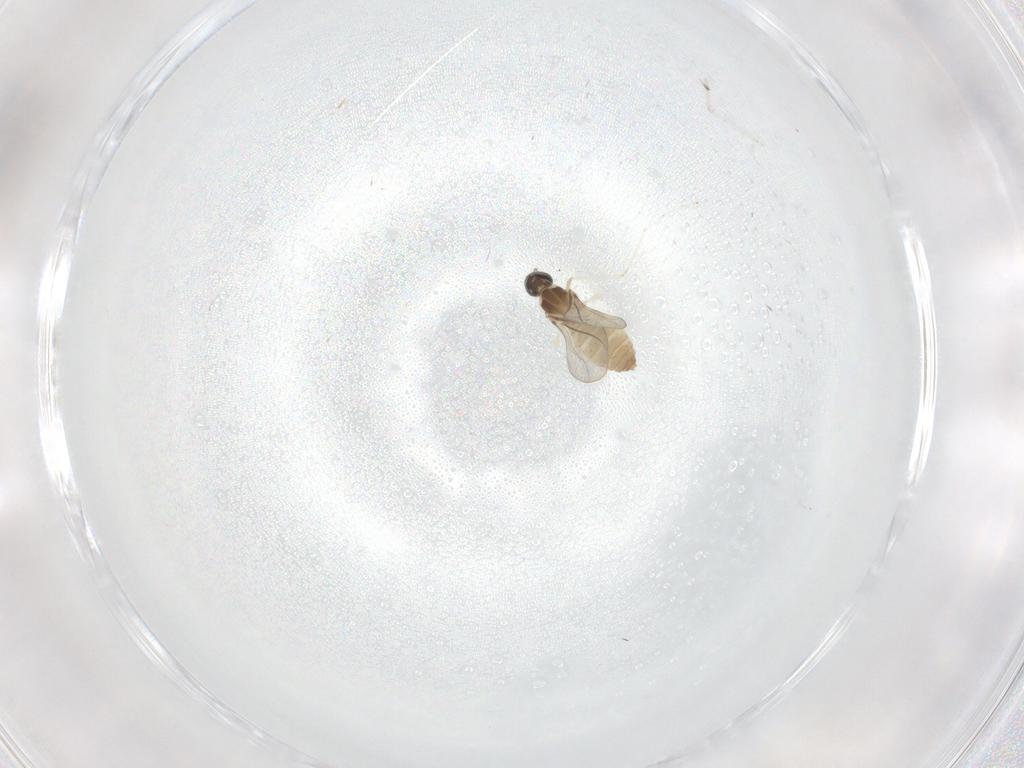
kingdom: Animalia
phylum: Arthropoda
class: Insecta
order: Diptera
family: Cecidomyiidae
